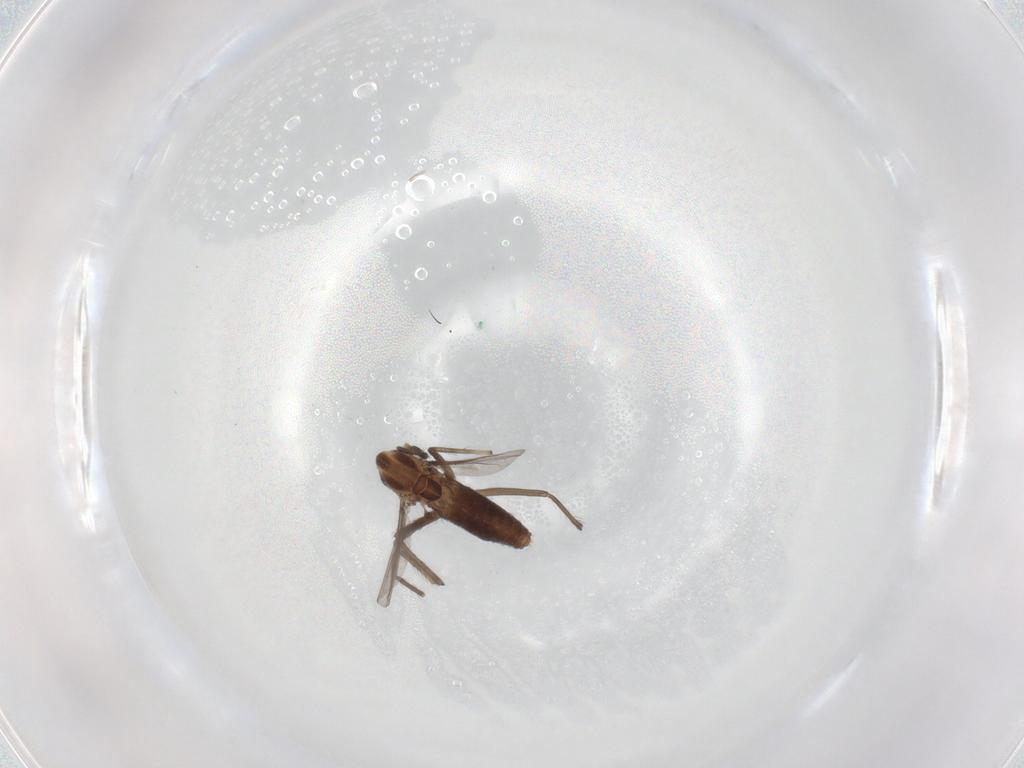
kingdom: Animalia
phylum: Arthropoda
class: Insecta
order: Diptera
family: Chironomidae
